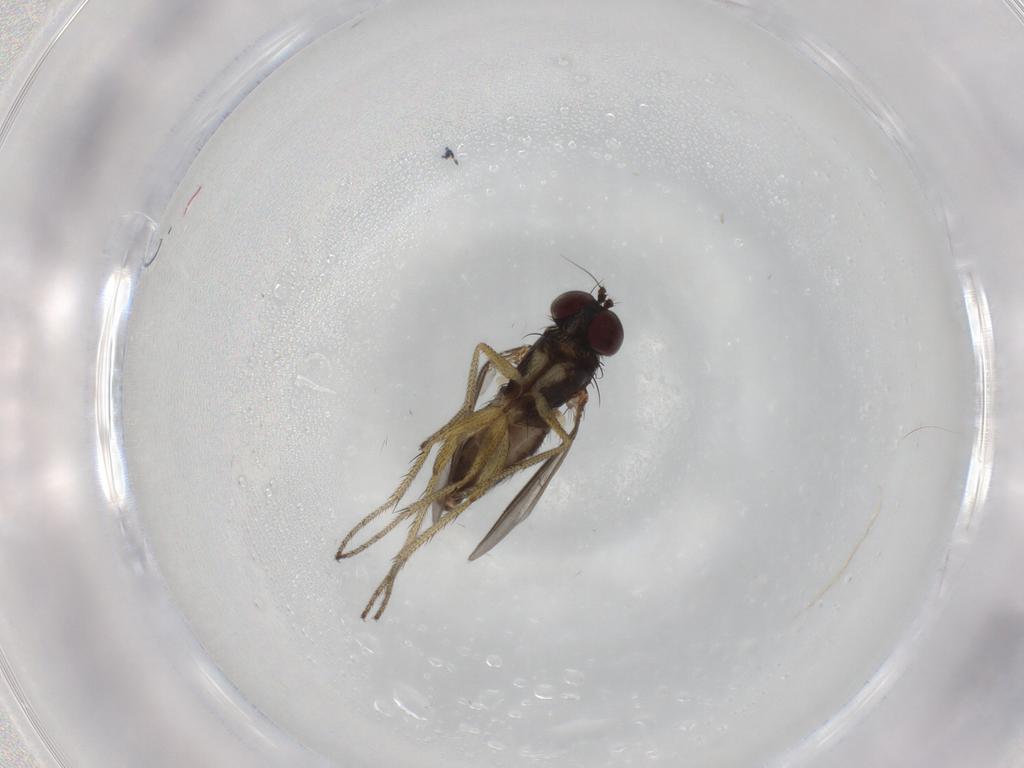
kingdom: Animalia
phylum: Arthropoda
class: Insecta
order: Diptera
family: Dolichopodidae
